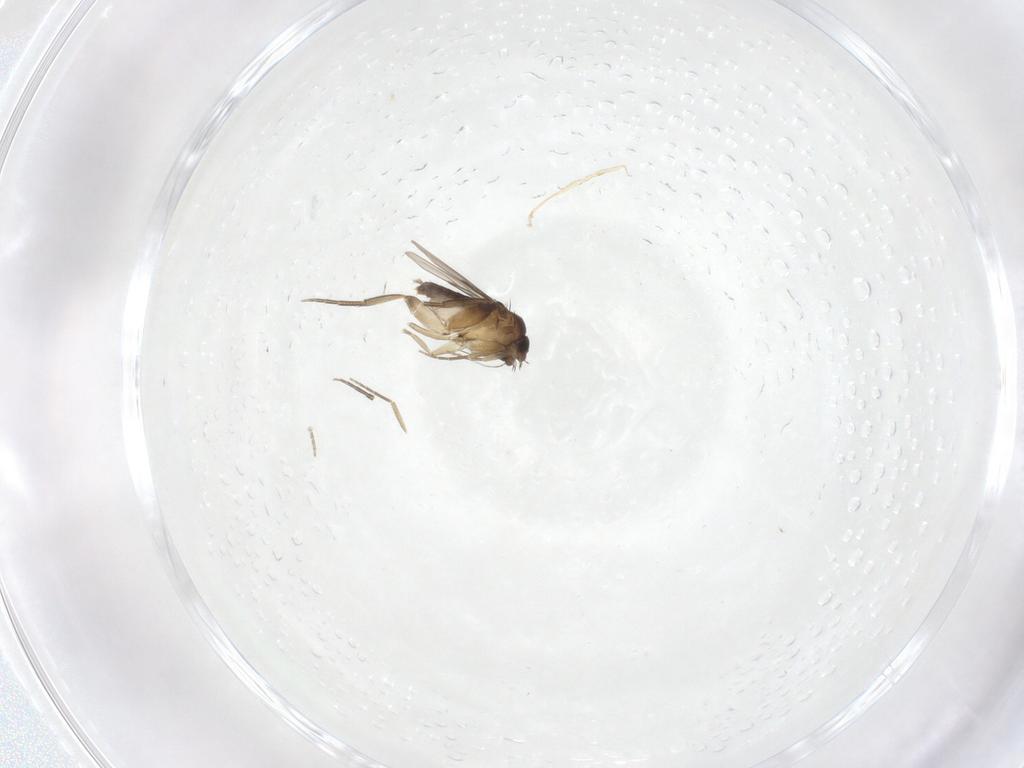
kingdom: Animalia
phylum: Arthropoda
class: Insecta
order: Diptera
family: Phoridae
